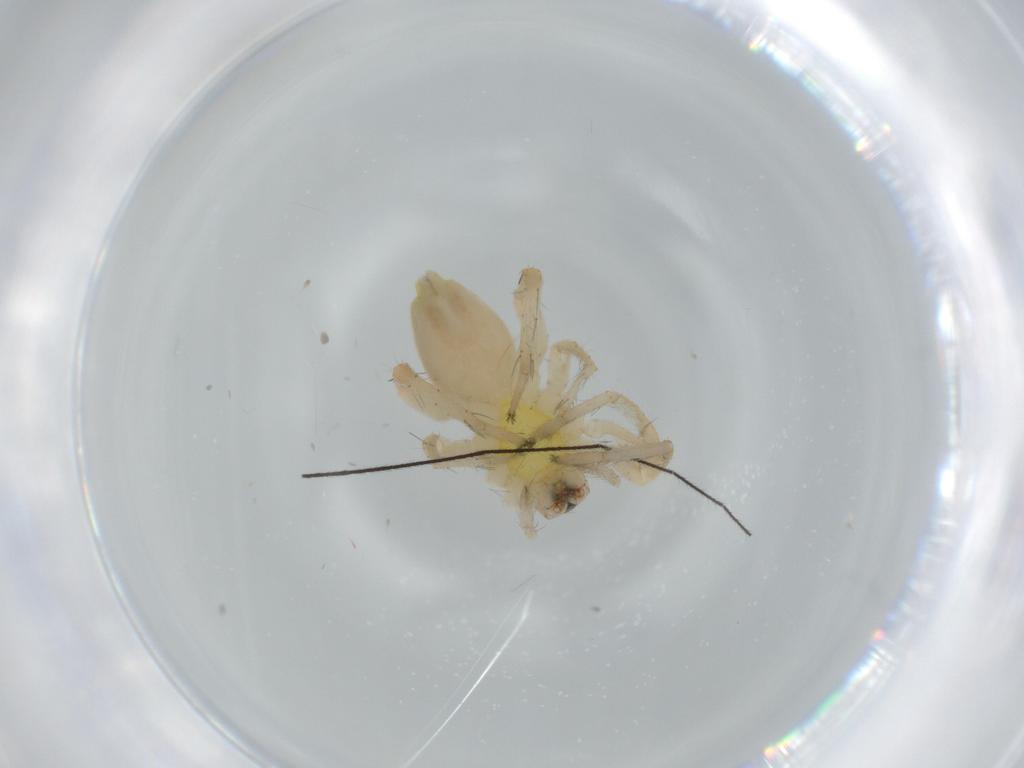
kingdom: Animalia
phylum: Arthropoda
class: Arachnida
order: Araneae
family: Anyphaenidae
